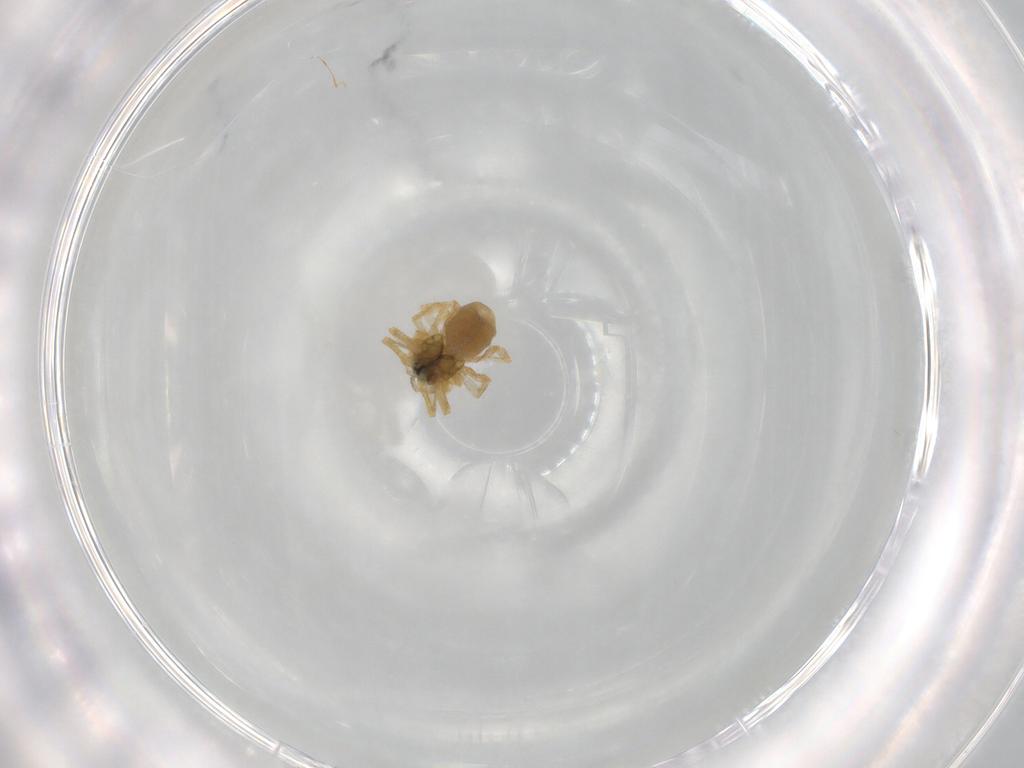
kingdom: Animalia
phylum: Arthropoda
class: Arachnida
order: Araneae
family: Linyphiidae
